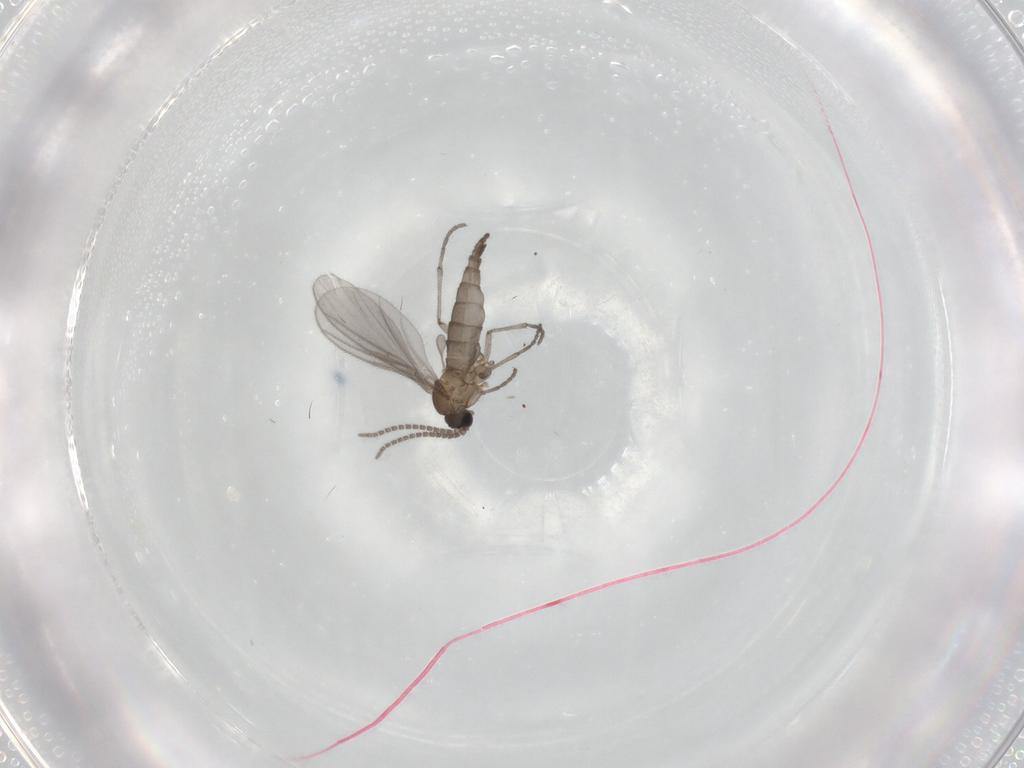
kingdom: Animalia
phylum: Arthropoda
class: Insecta
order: Diptera
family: Sciaridae
